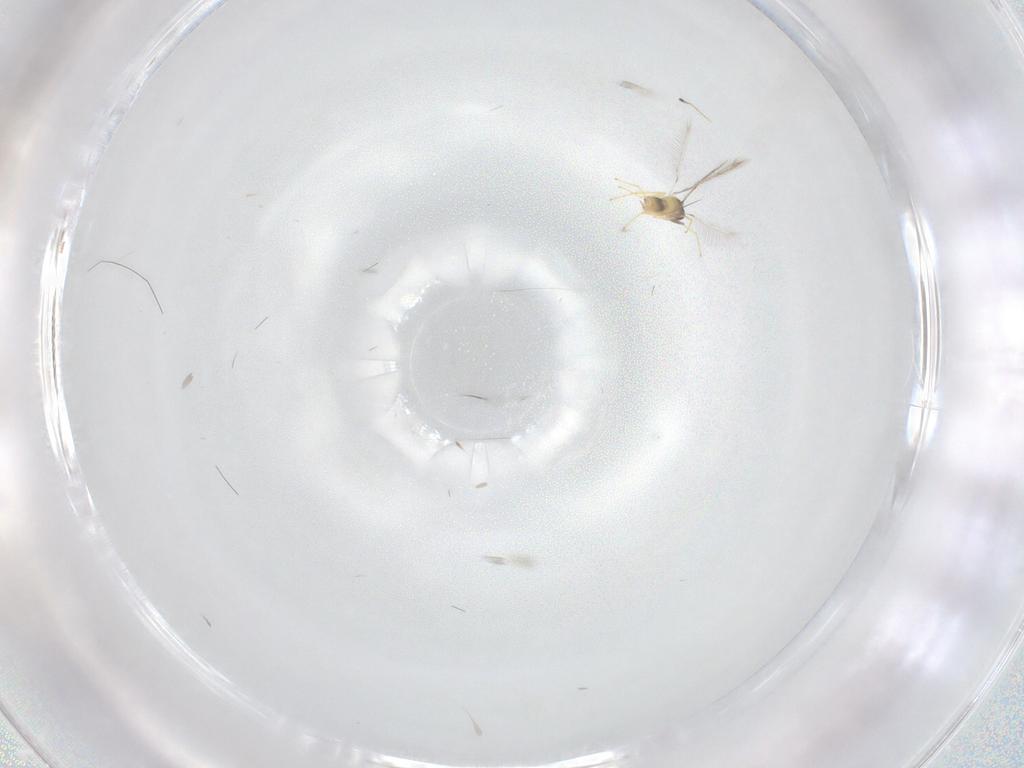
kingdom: Animalia
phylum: Arthropoda
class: Insecta
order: Hymenoptera
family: Mymaridae
